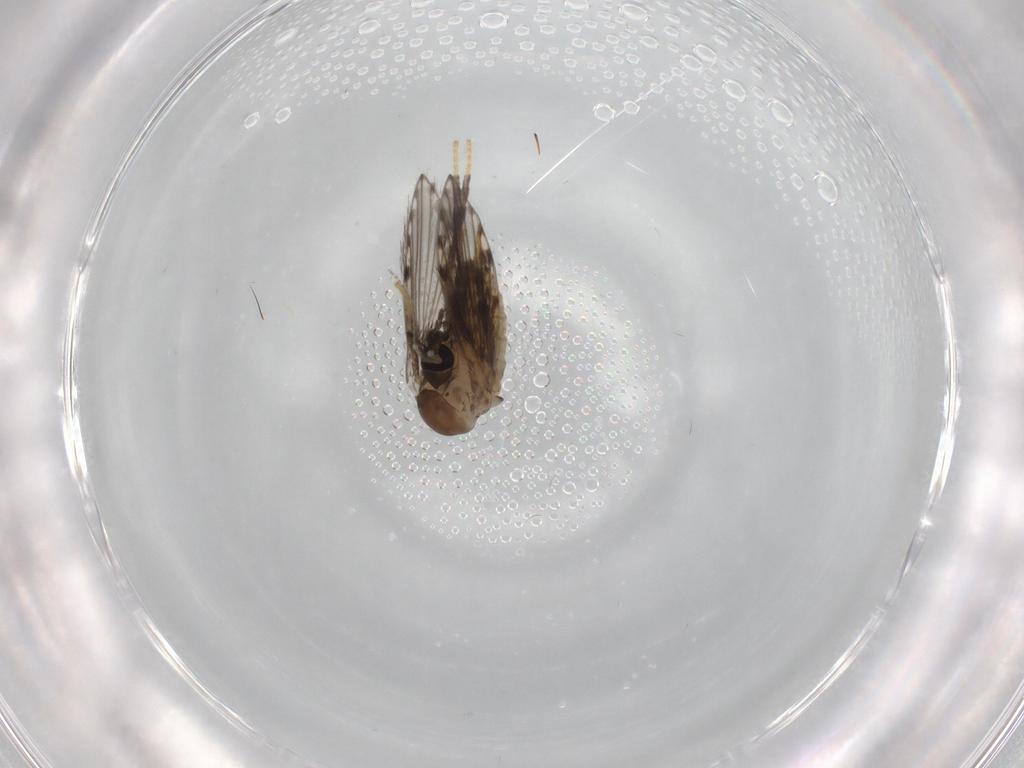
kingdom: Animalia
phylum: Arthropoda
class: Insecta
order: Diptera
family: Psychodidae
